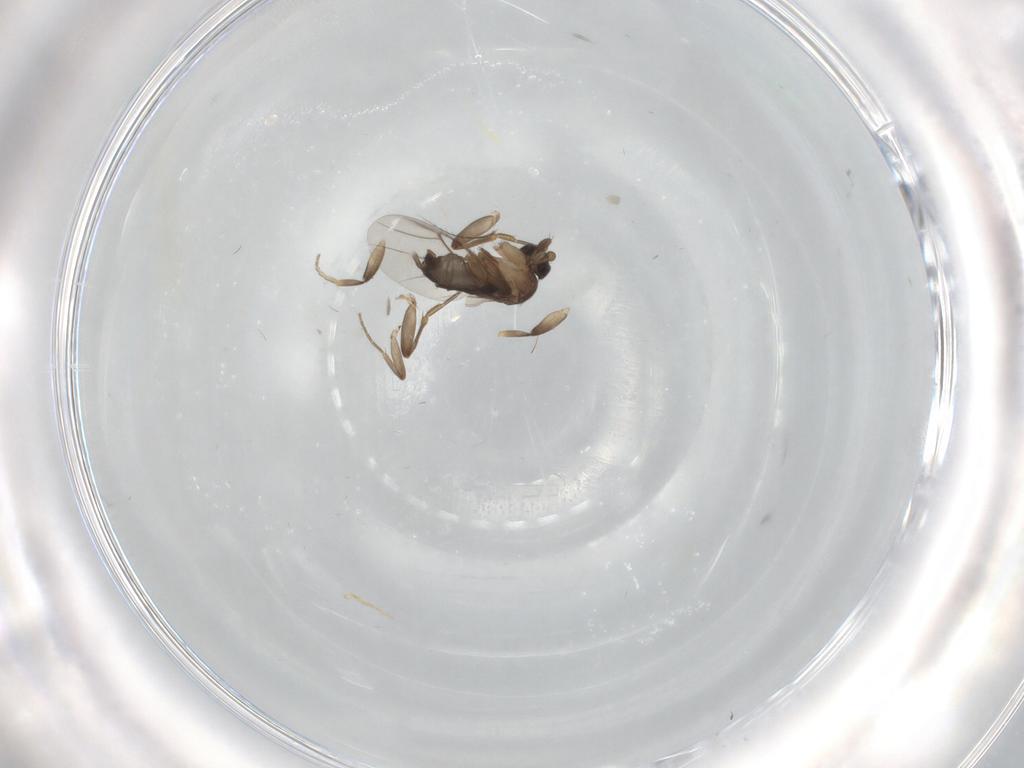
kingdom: Animalia
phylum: Arthropoda
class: Insecta
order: Diptera
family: Phoridae
